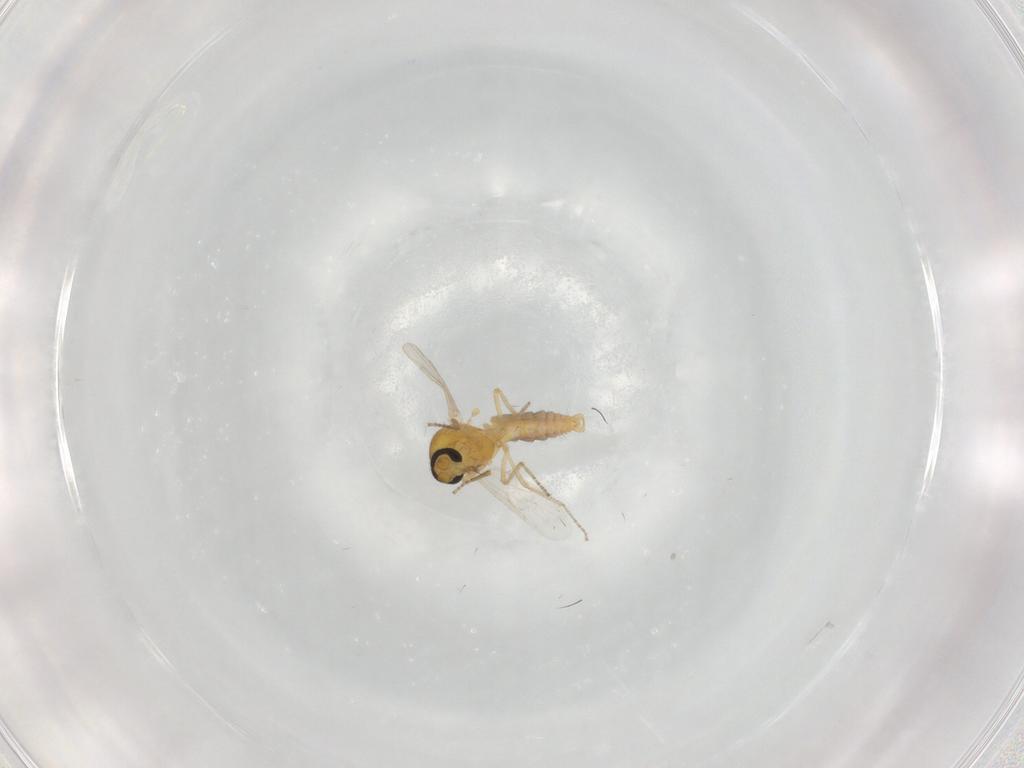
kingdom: Animalia
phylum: Arthropoda
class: Insecta
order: Diptera
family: Ceratopogonidae
